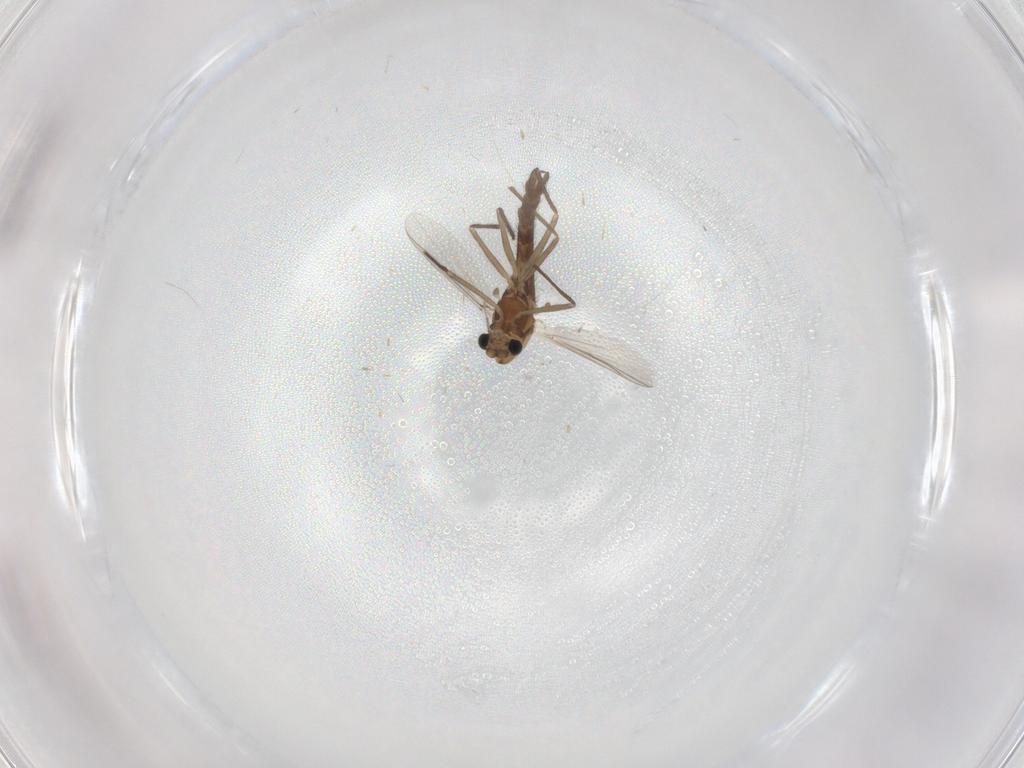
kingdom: Animalia
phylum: Arthropoda
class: Insecta
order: Diptera
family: Chironomidae
